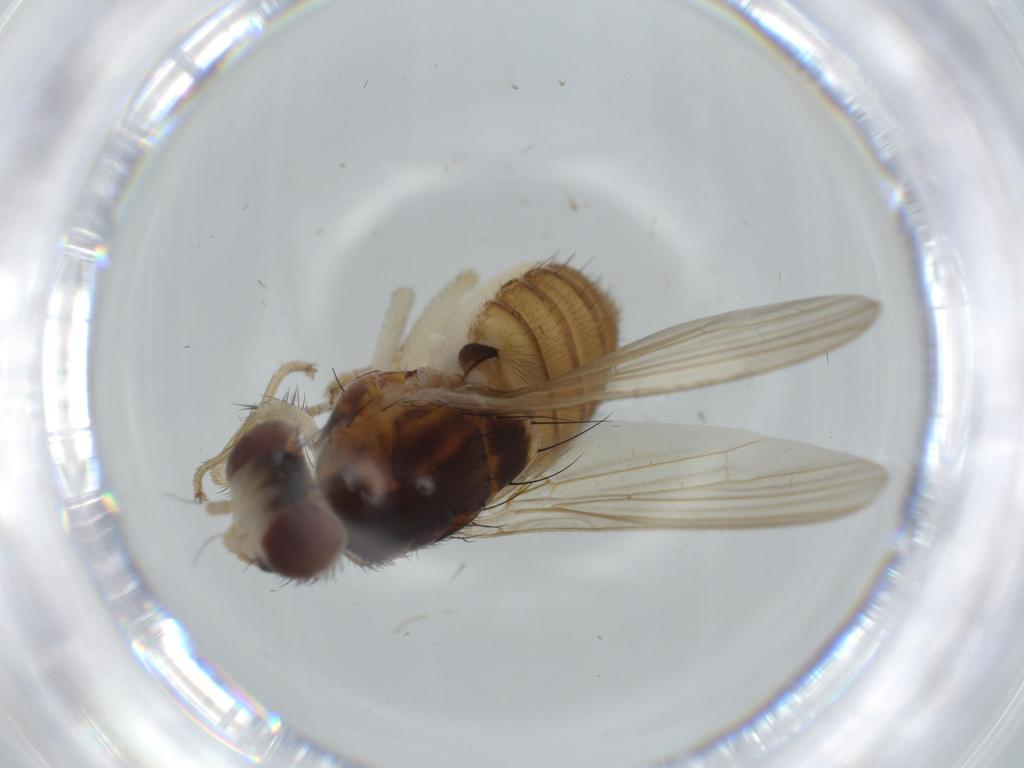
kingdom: Animalia
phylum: Arthropoda
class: Insecta
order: Diptera
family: Lauxaniidae
